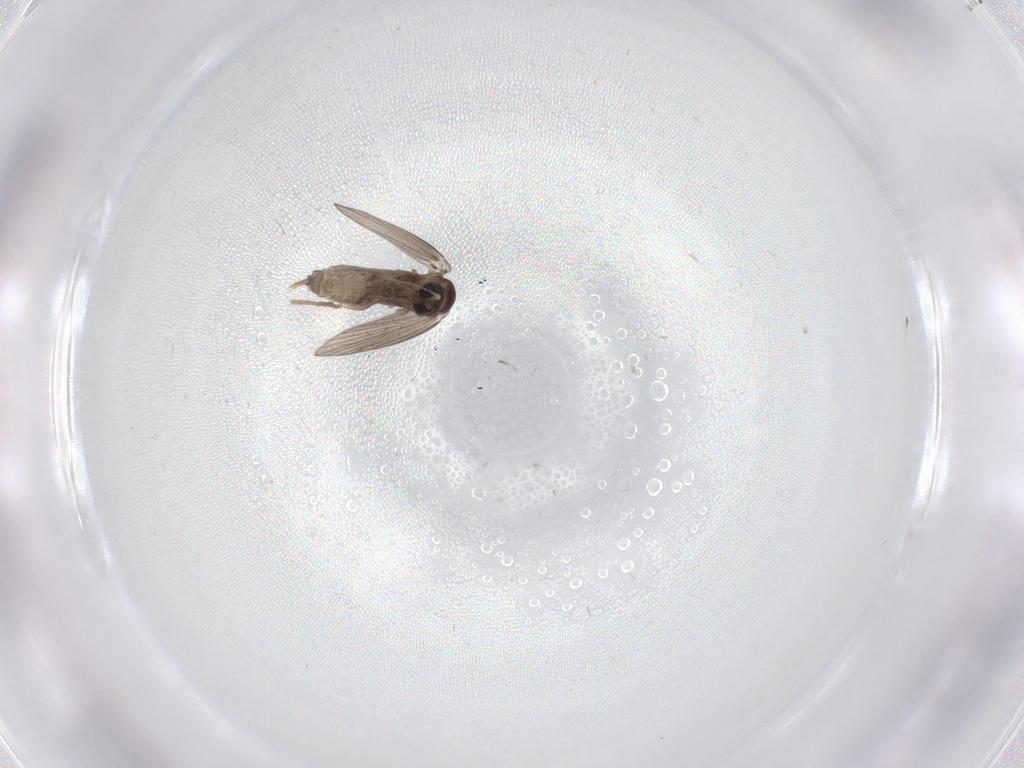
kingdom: Animalia
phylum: Arthropoda
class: Insecta
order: Diptera
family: Psychodidae
